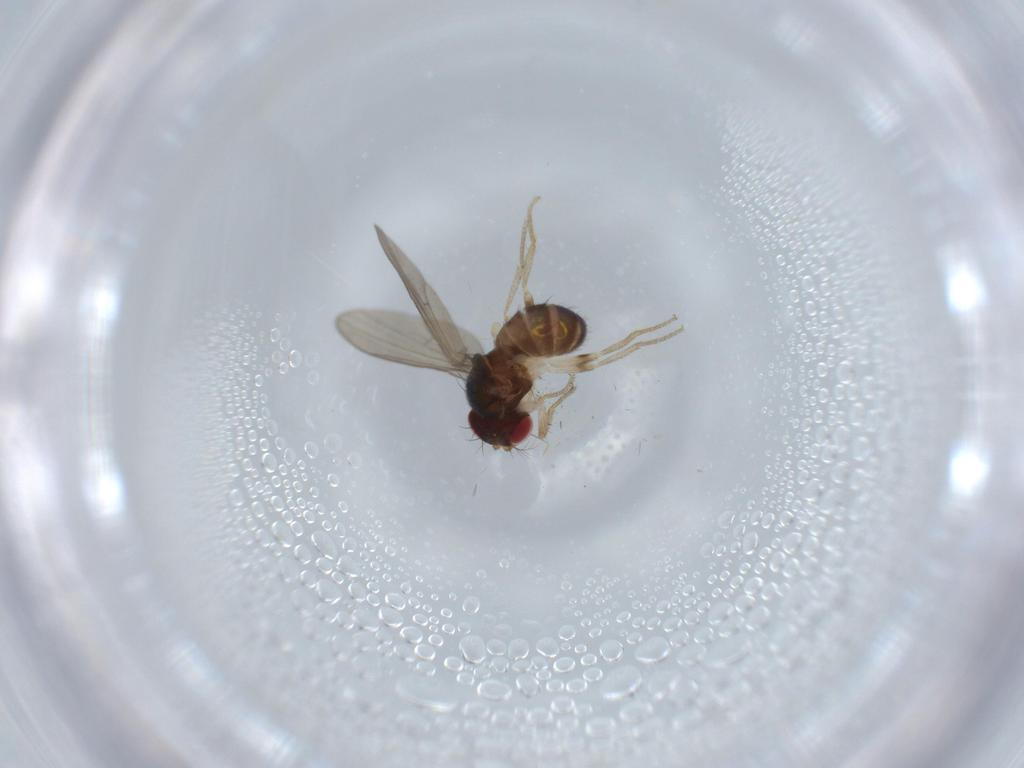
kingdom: Animalia
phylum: Arthropoda
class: Insecta
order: Diptera
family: Drosophilidae
